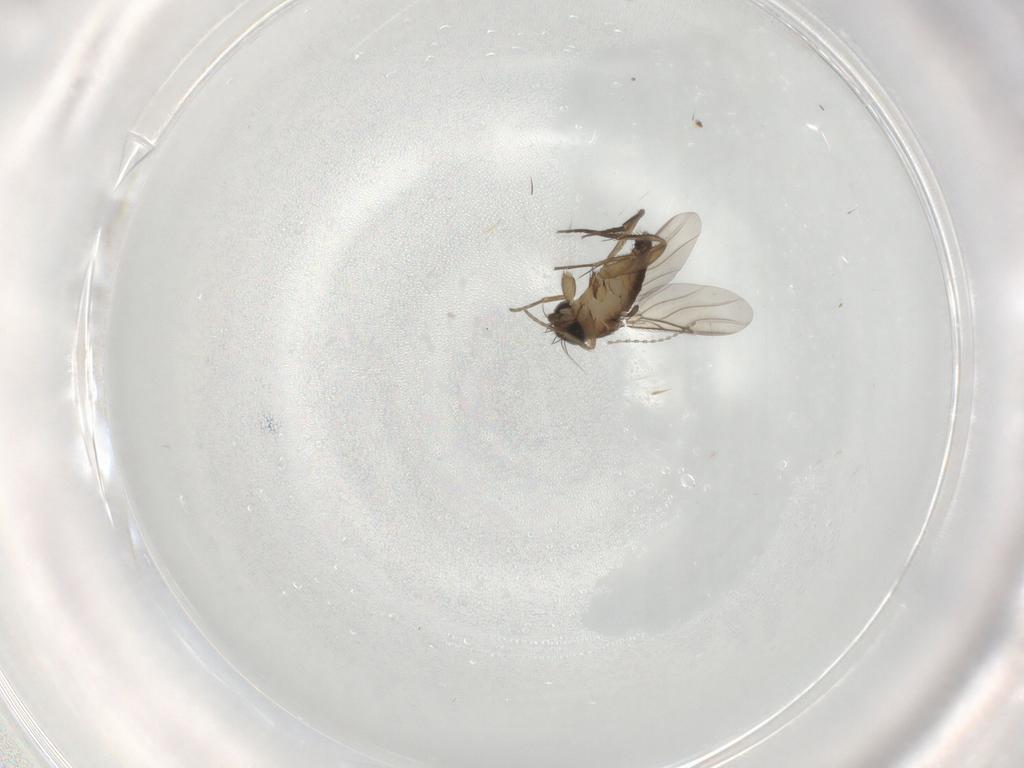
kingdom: Animalia
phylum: Arthropoda
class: Insecta
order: Diptera
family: Phoridae
